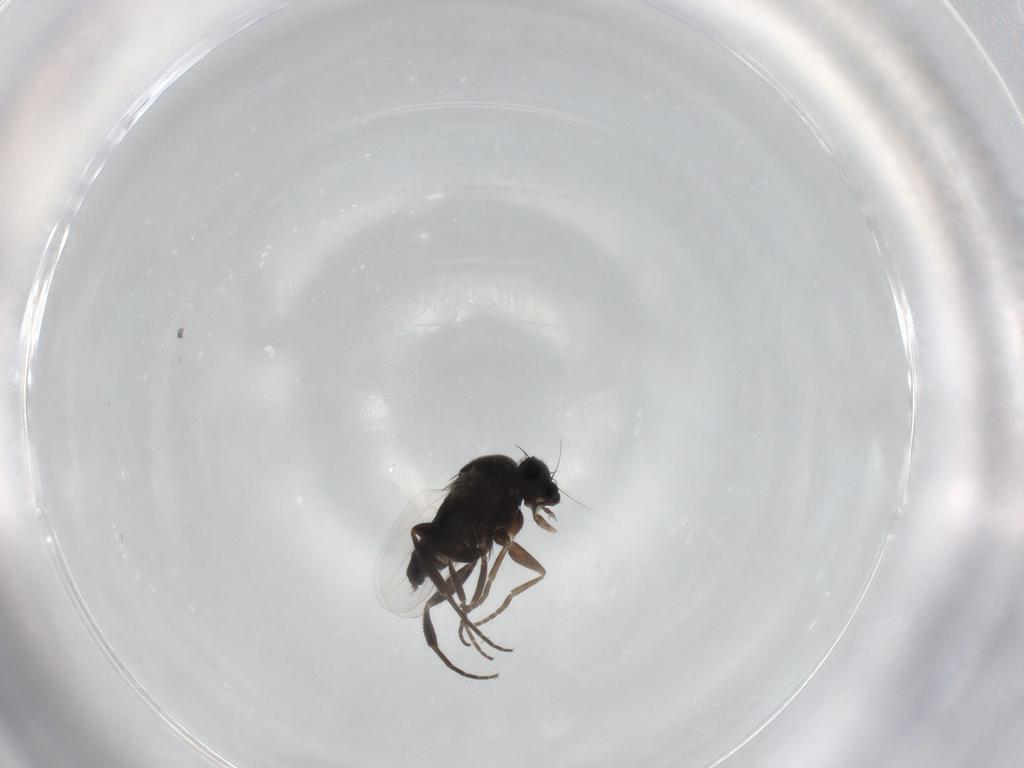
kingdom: Animalia
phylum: Arthropoda
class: Insecta
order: Diptera
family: Phoridae
